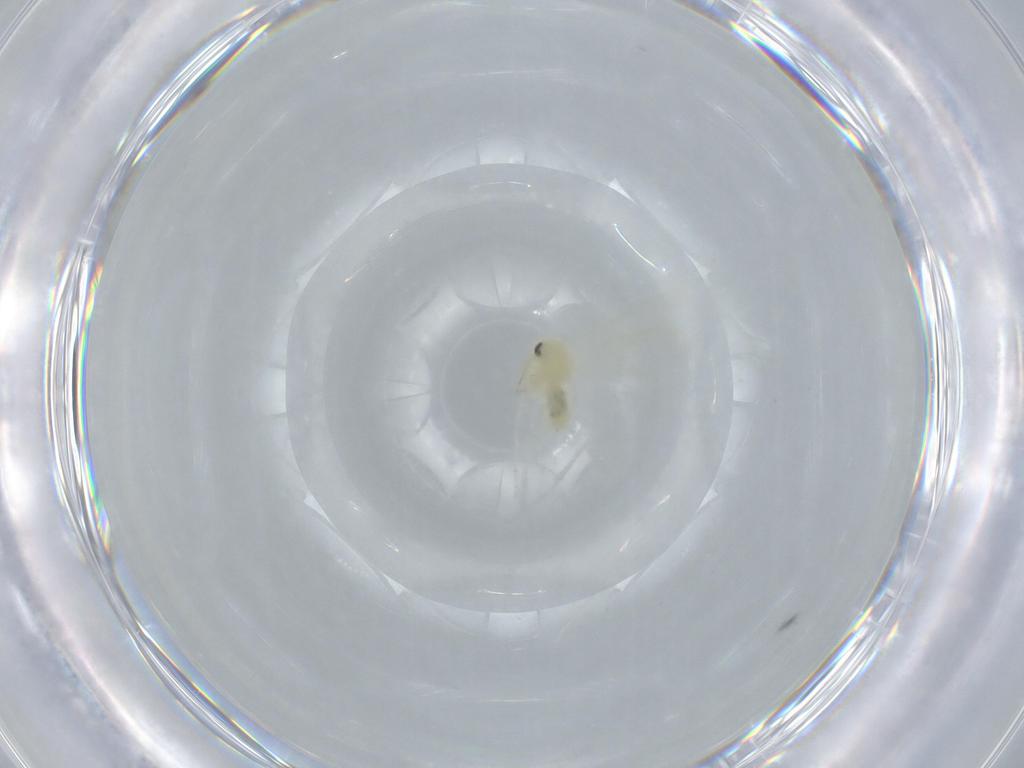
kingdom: Animalia
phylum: Arthropoda
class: Insecta
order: Hemiptera
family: Aleyrodidae
